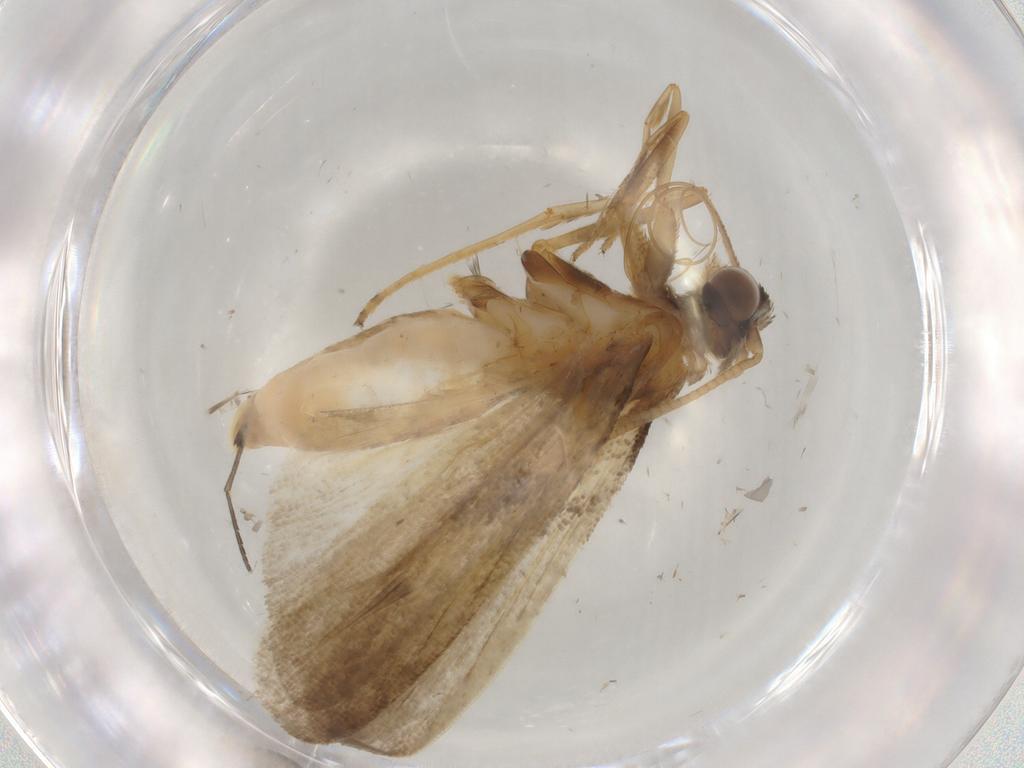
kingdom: Animalia
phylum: Arthropoda
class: Insecta
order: Lepidoptera
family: Noctuidae
